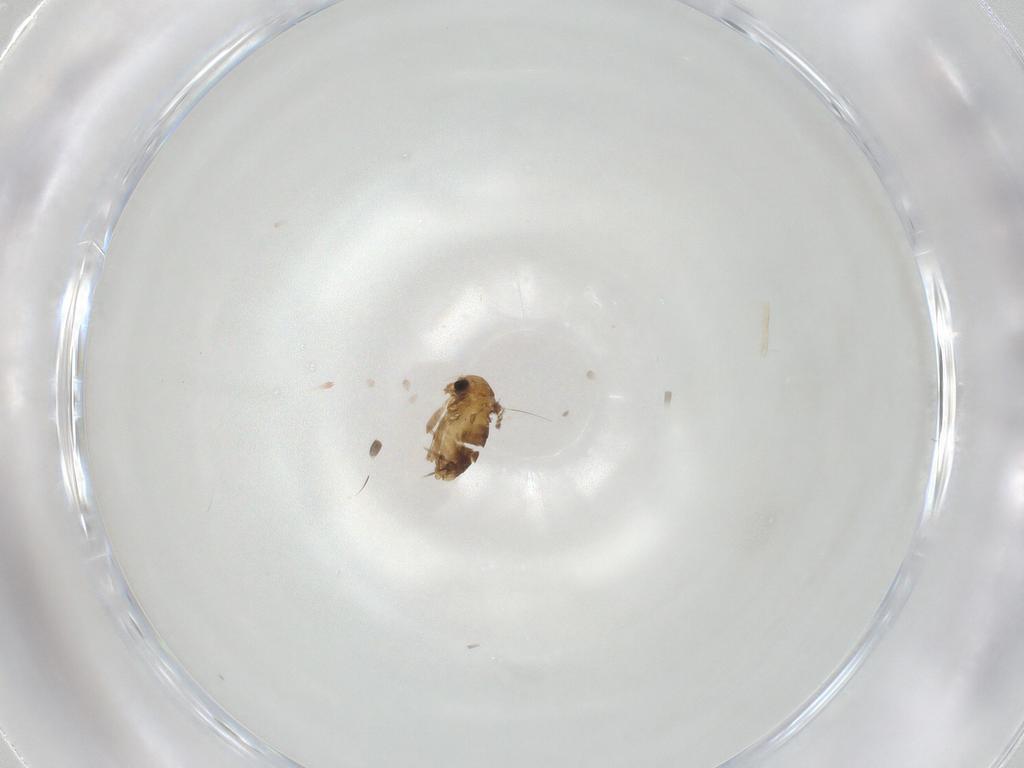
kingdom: Animalia
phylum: Arthropoda
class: Insecta
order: Diptera
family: Chironomidae
